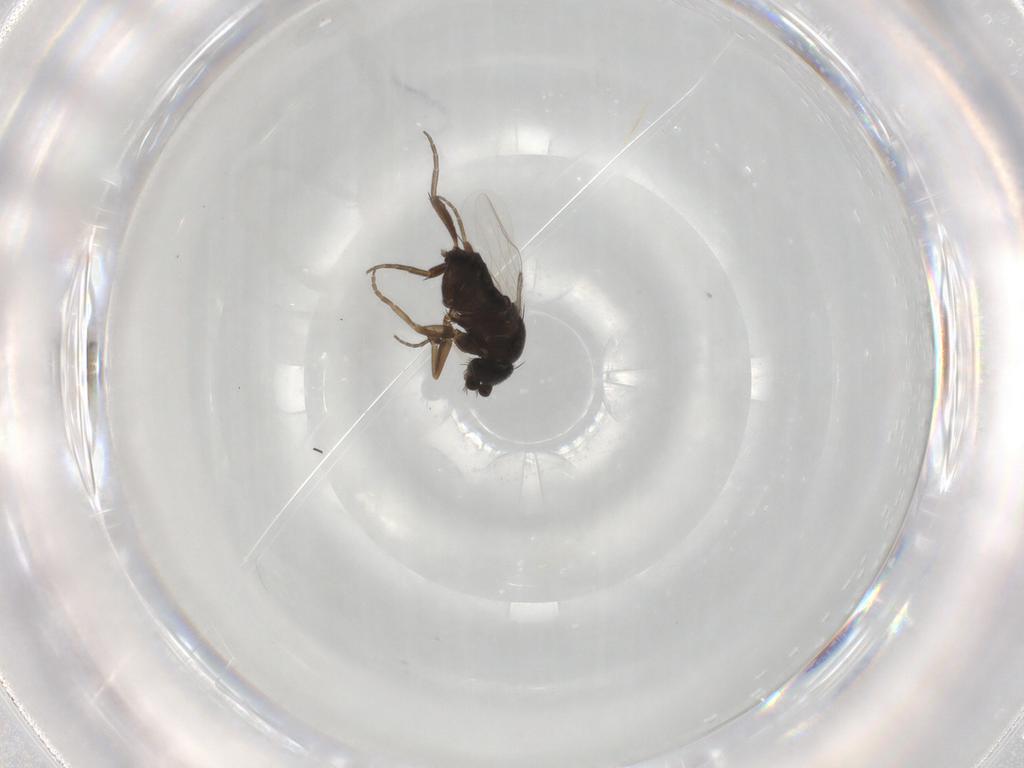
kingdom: Animalia
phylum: Arthropoda
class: Insecta
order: Diptera
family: Phoridae
